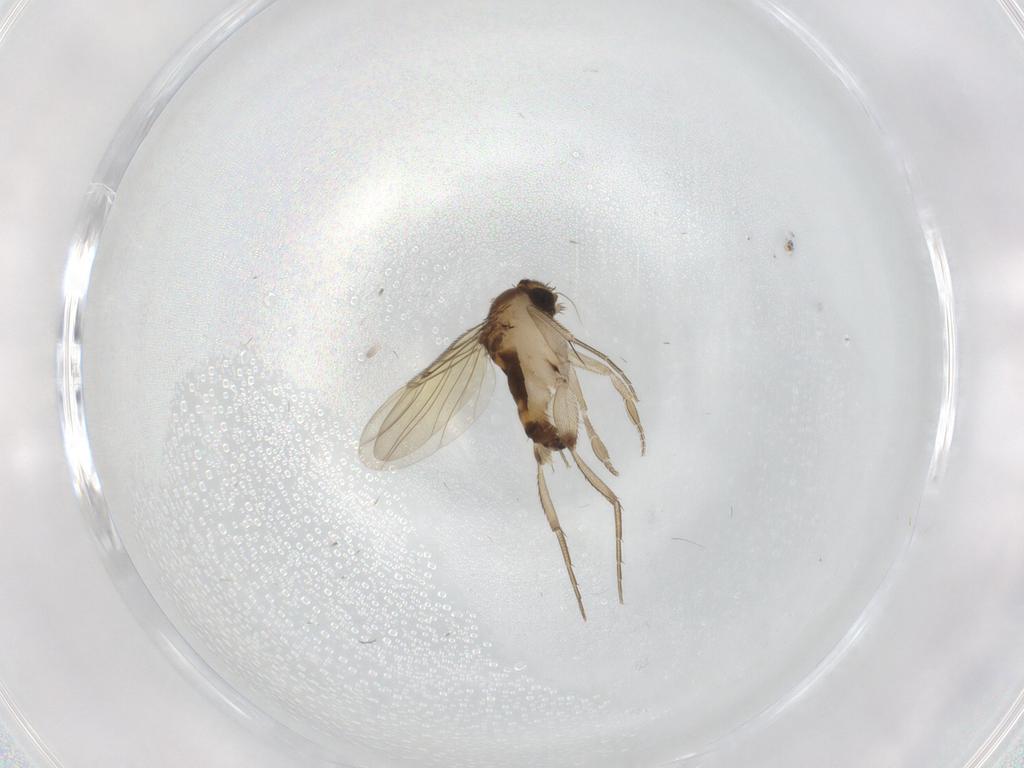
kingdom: Animalia
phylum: Arthropoda
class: Insecta
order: Diptera
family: Phoridae
